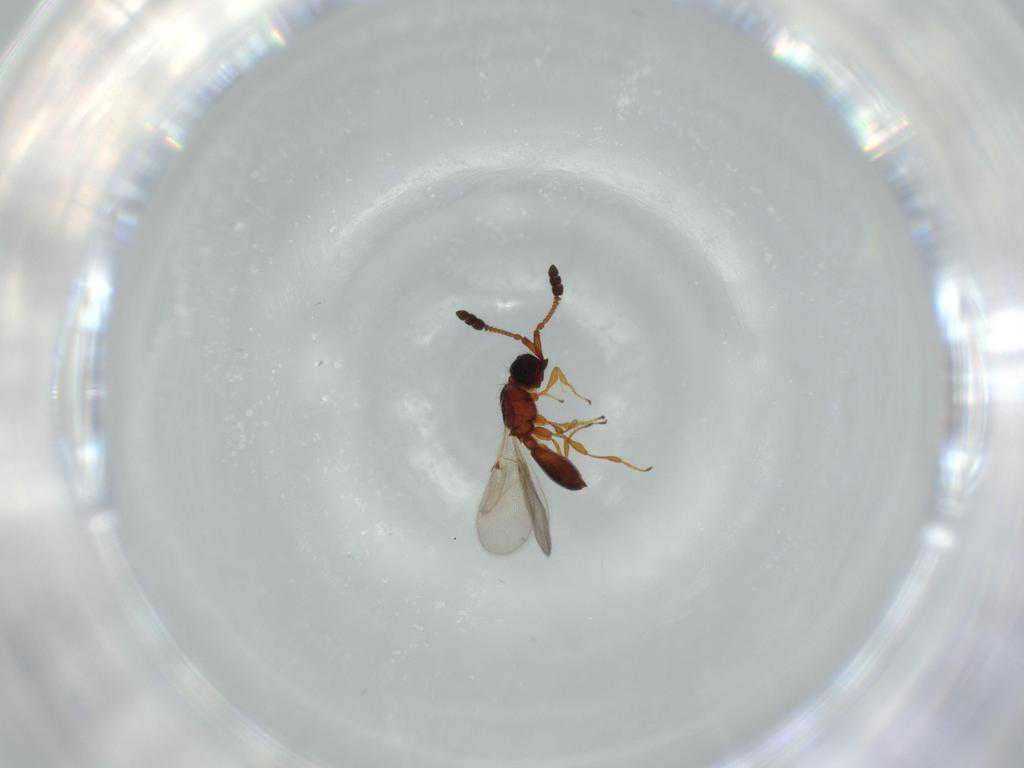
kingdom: Animalia
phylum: Arthropoda
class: Insecta
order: Hymenoptera
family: Diapriidae
